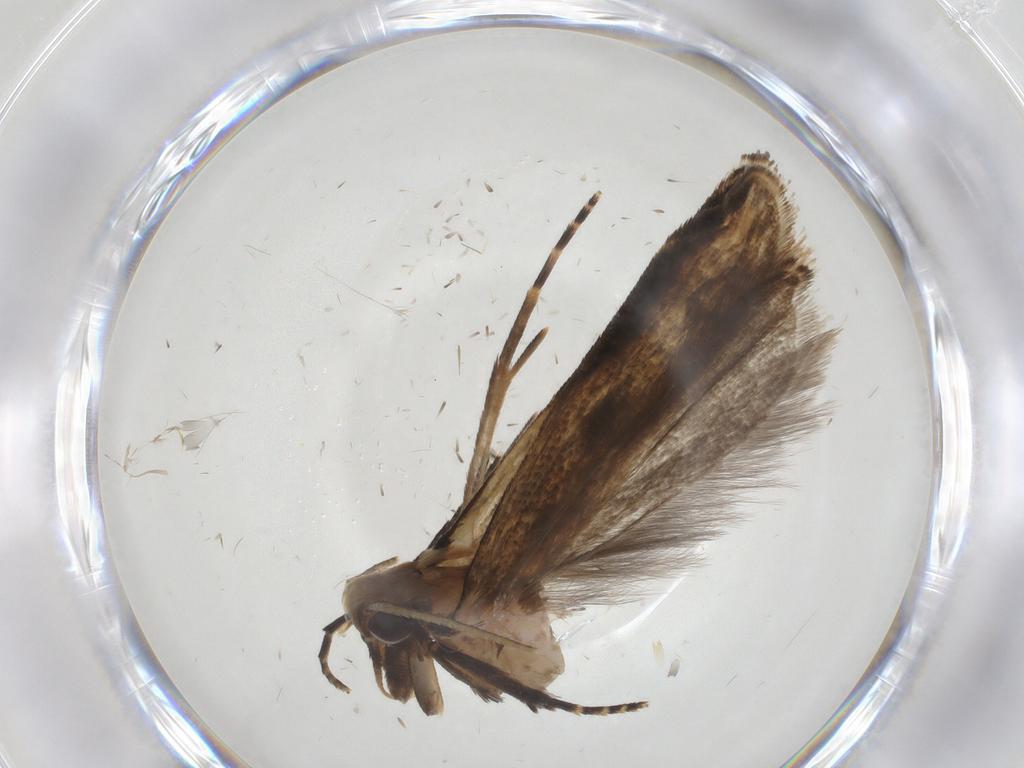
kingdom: Animalia
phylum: Arthropoda
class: Insecta
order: Lepidoptera
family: Gelechiidae
